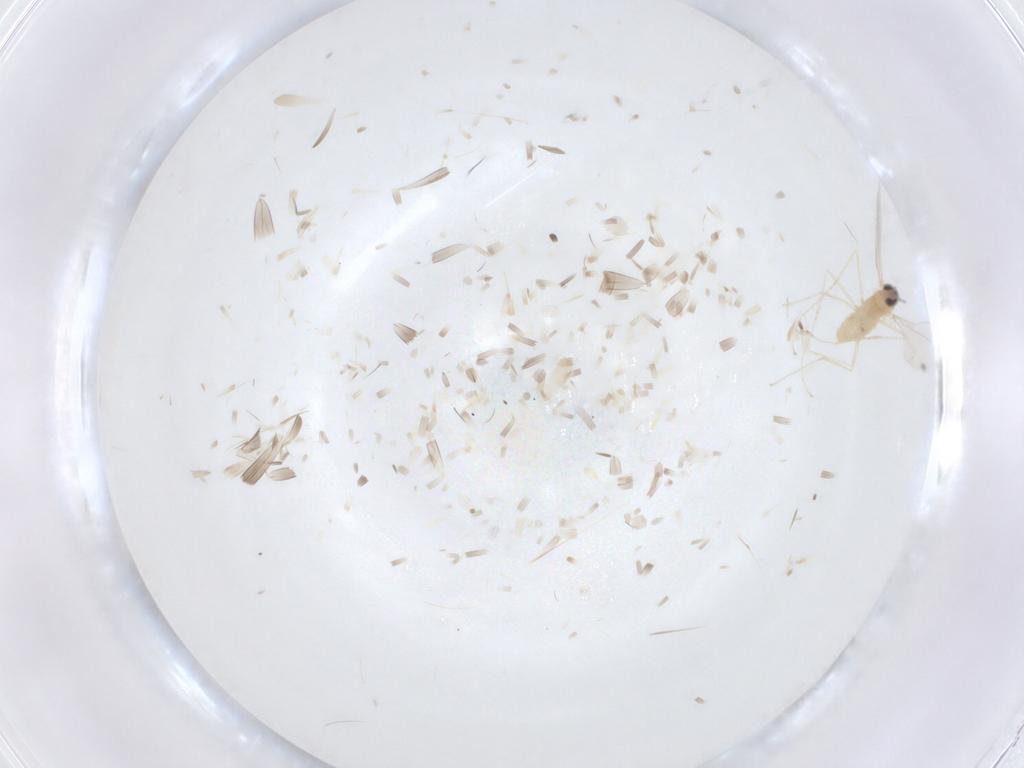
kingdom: Animalia
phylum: Arthropoda
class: Insecta
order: Diptera
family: Cecidomyiidae
